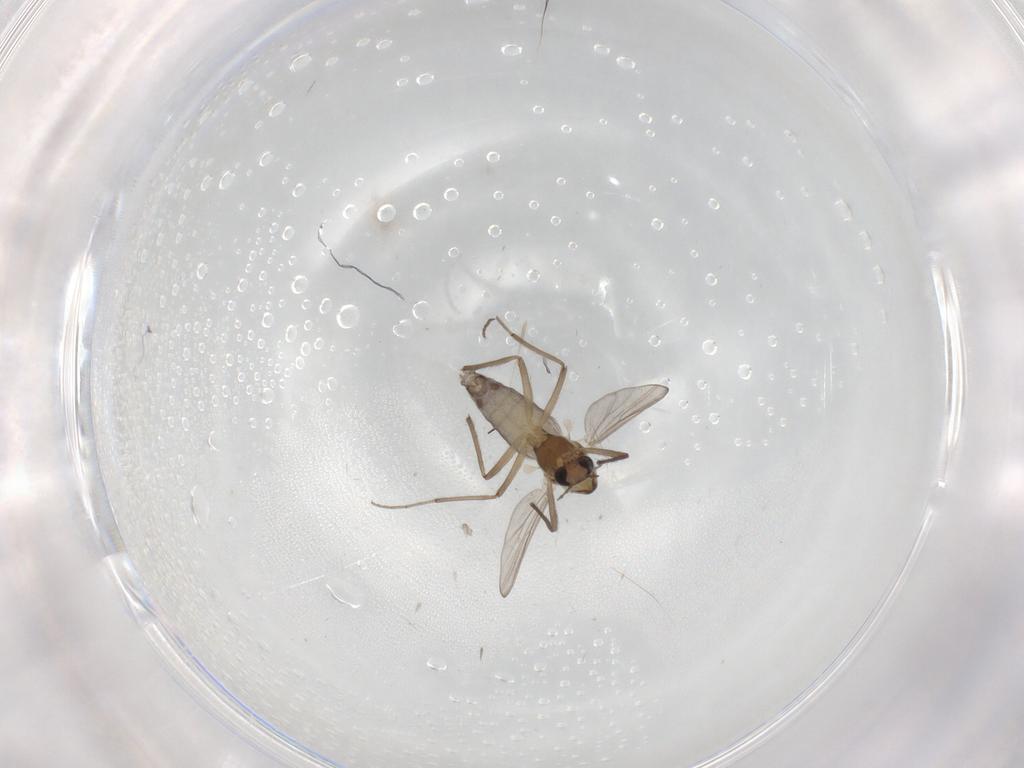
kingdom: Animalia
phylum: Arthropoda
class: Insecta
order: Diptera
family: Chironomidae
